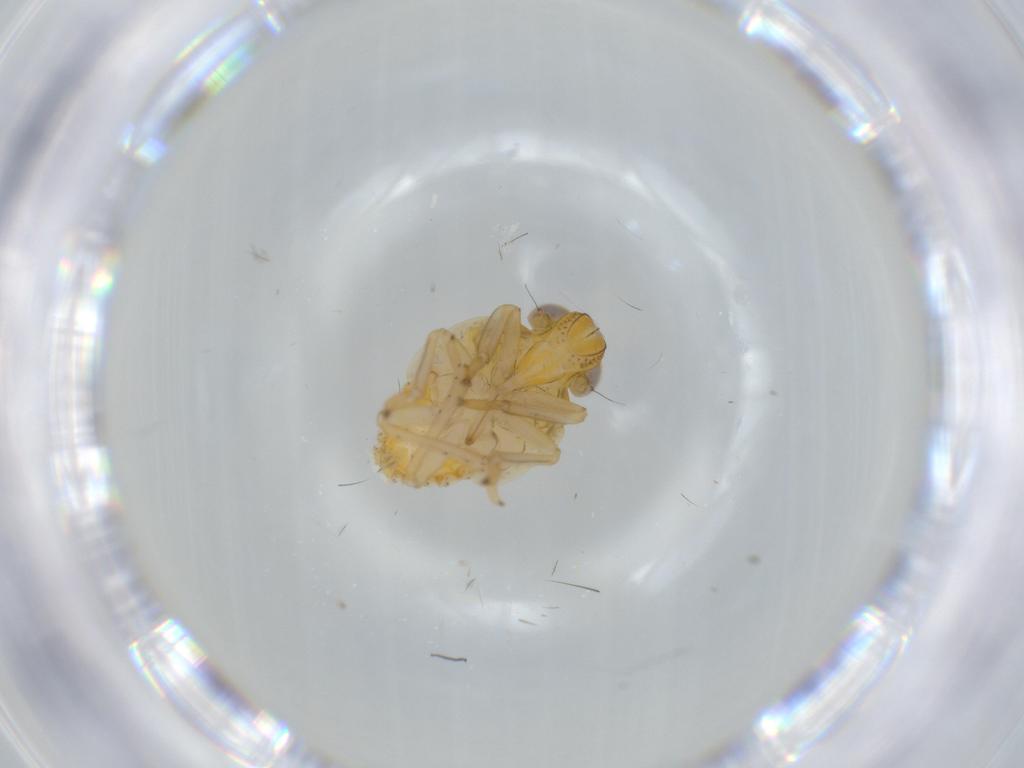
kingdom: Animalia
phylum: Arthropoda
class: Insecta
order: Hemiptera
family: Issidae
